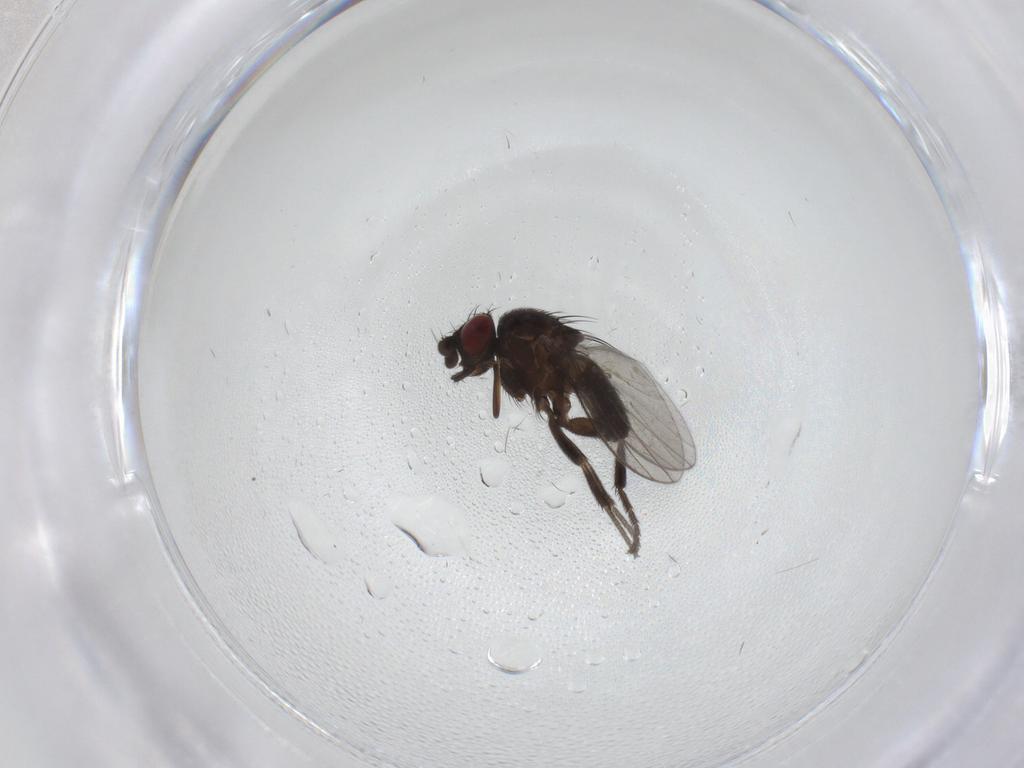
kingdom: Animalia
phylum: Arthropoda
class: Insecta
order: Diptera
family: Milichiidae
